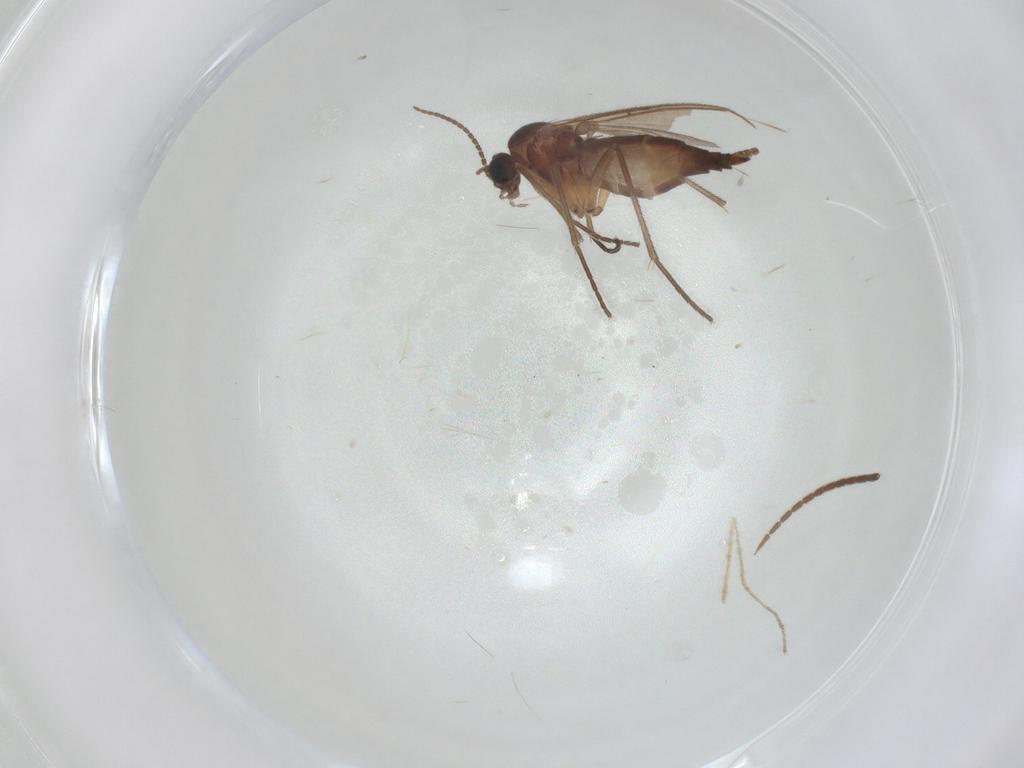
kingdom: Animalia
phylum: Arthropoda
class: Insecta
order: Diptera
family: Sciaridae
